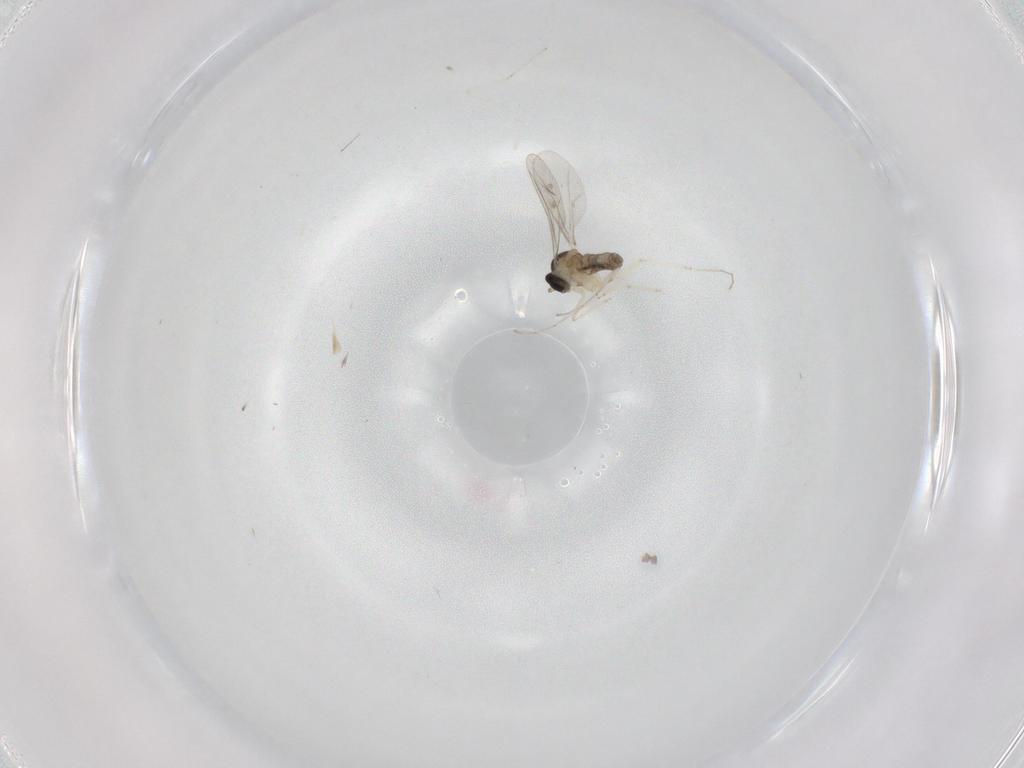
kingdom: Animalia
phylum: Arthropoda
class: Insecta
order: Diptera
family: Cecidomyiidae
